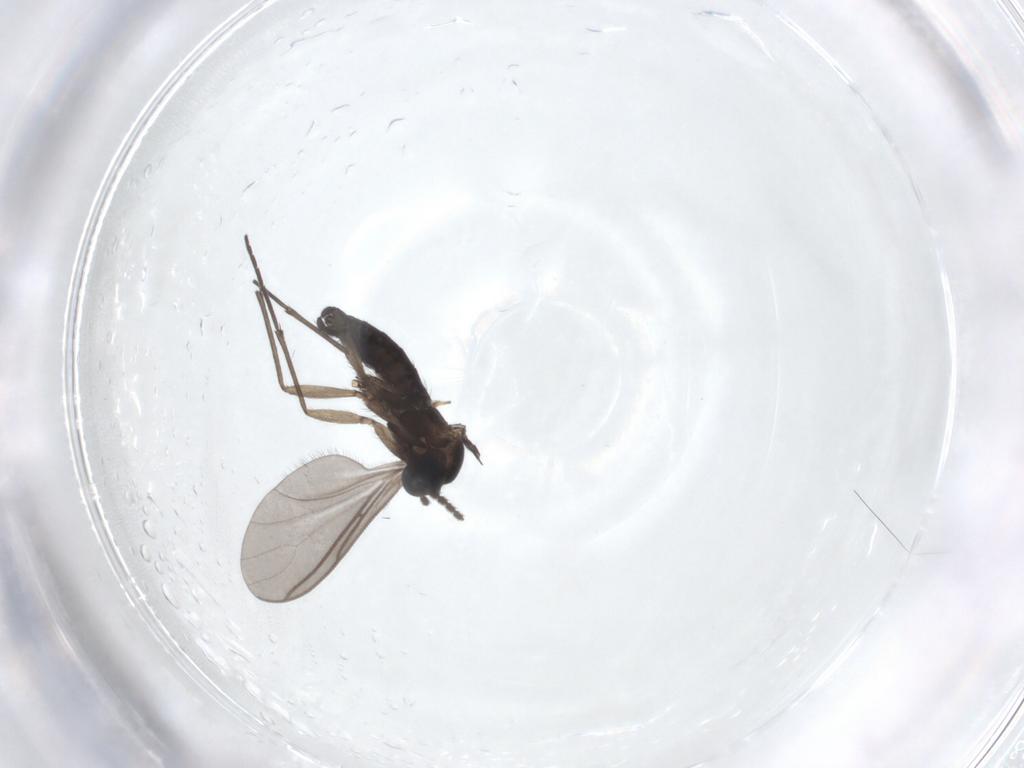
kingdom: Animalia
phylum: Arthropoda
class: Insecta
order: Diptera
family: Sciaridae
